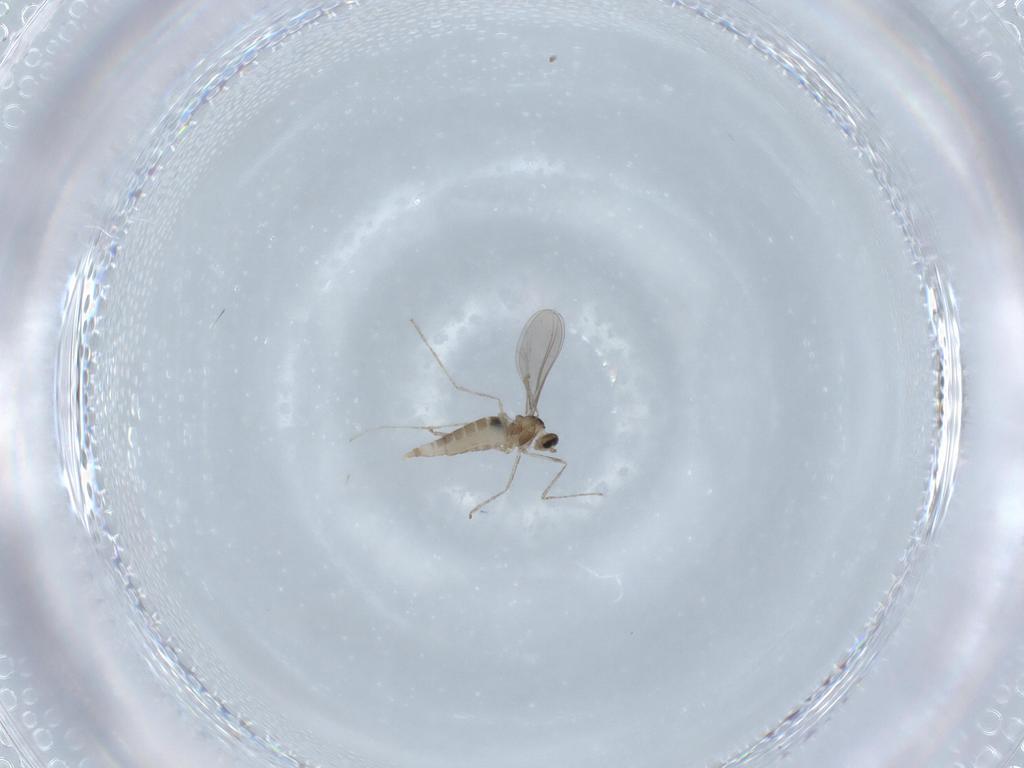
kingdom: Animalia
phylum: Arthropoda
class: Insecta
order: Diptera
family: Chironomidae
